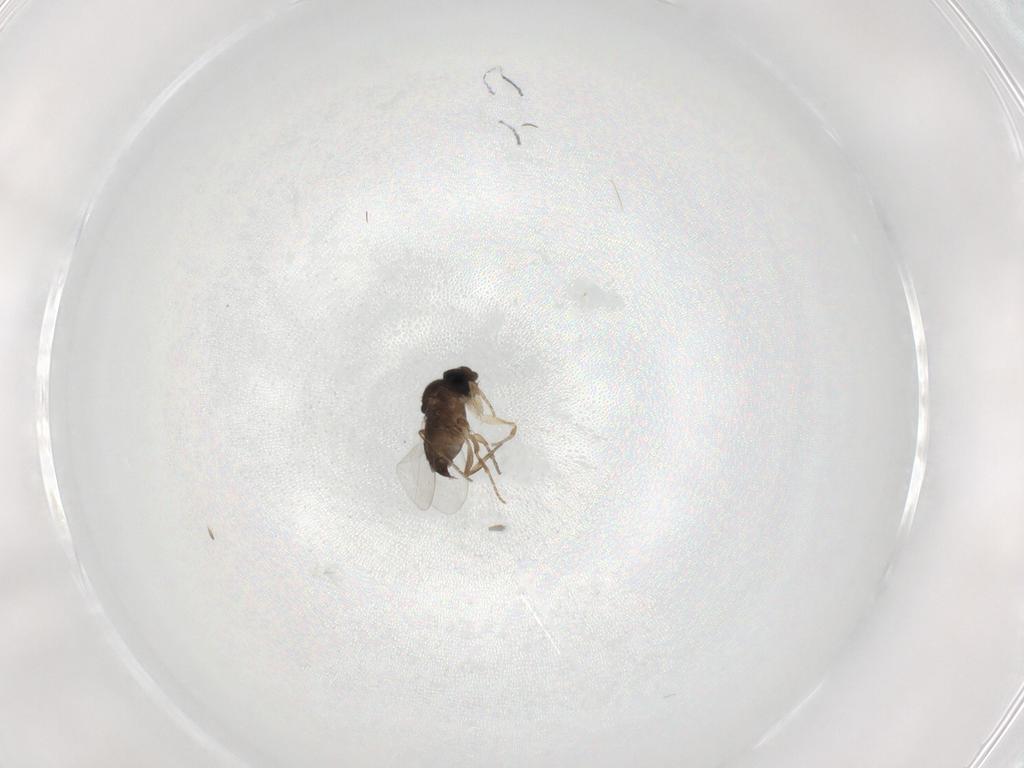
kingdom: Animalia
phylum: Arthropoda
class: Insecta
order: Diptera
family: Phoridae
